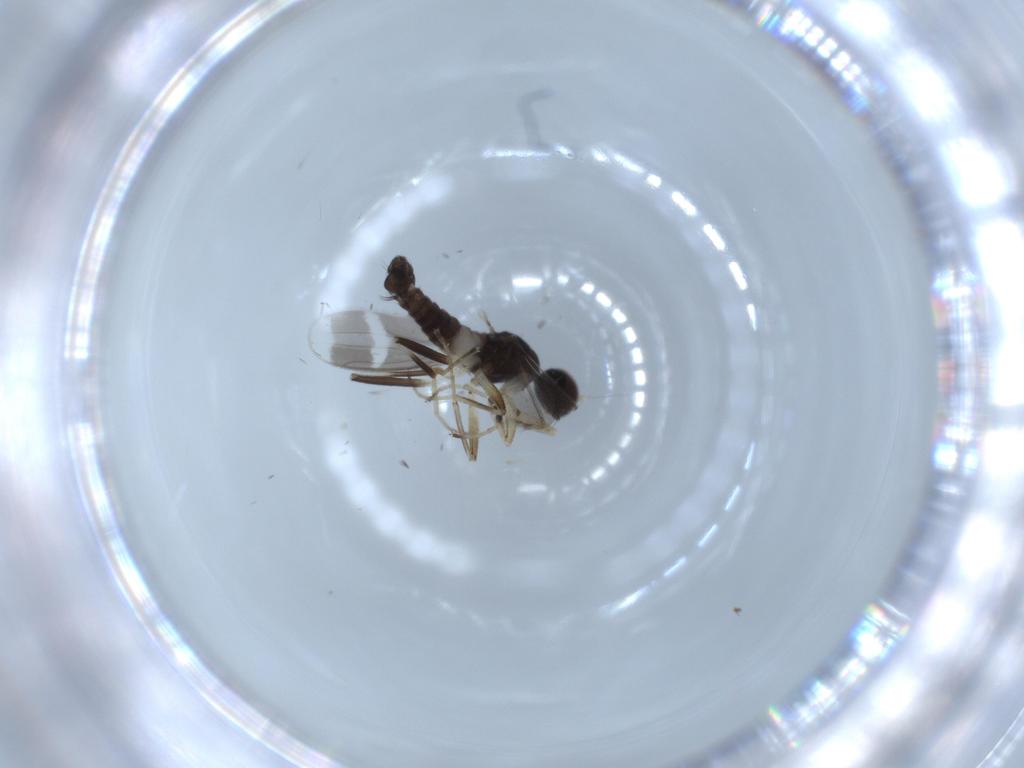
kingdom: Animalia
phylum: Arthropoda
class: Insecta
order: Diptera
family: Hybotidae
